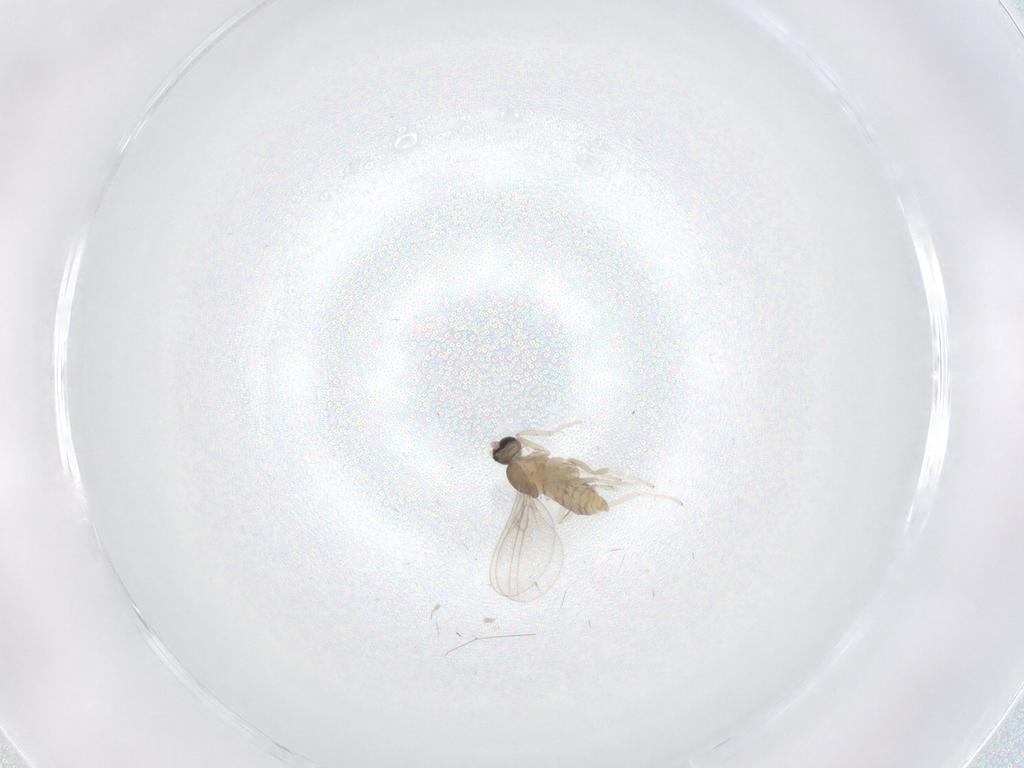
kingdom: Animalia
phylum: Arthropoda
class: Insecta
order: Diptera
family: Cecidomyiidae
